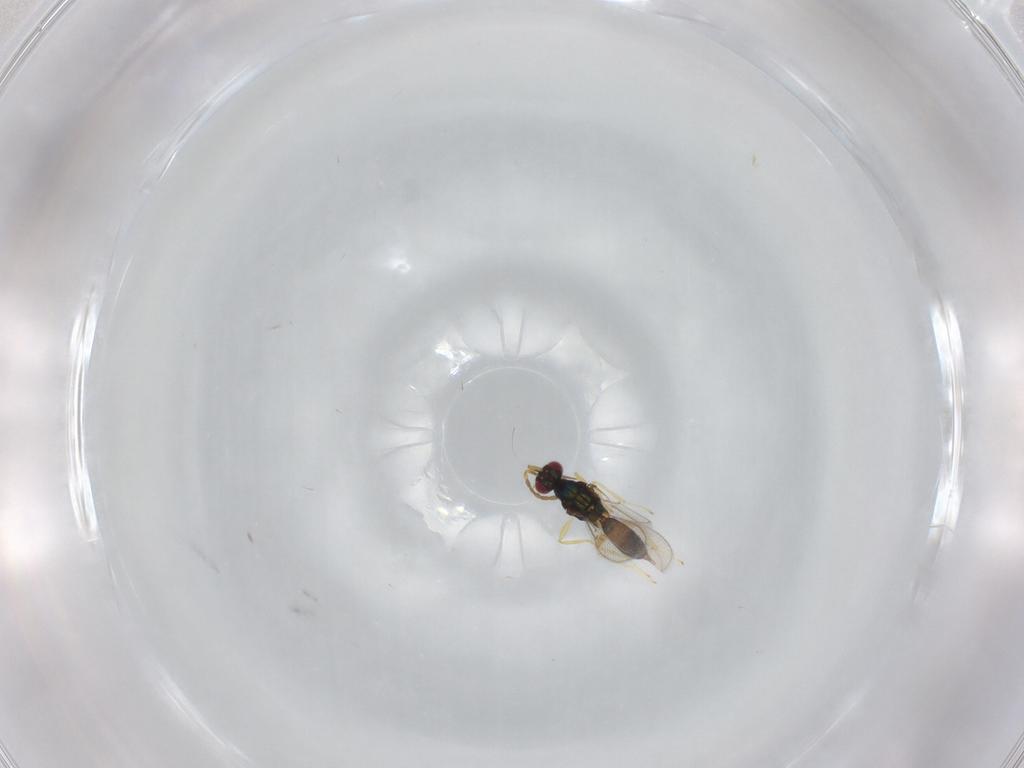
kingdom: Animalia
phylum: Arthropoda
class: Insecta
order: Hymenoptera
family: Eulophidae
